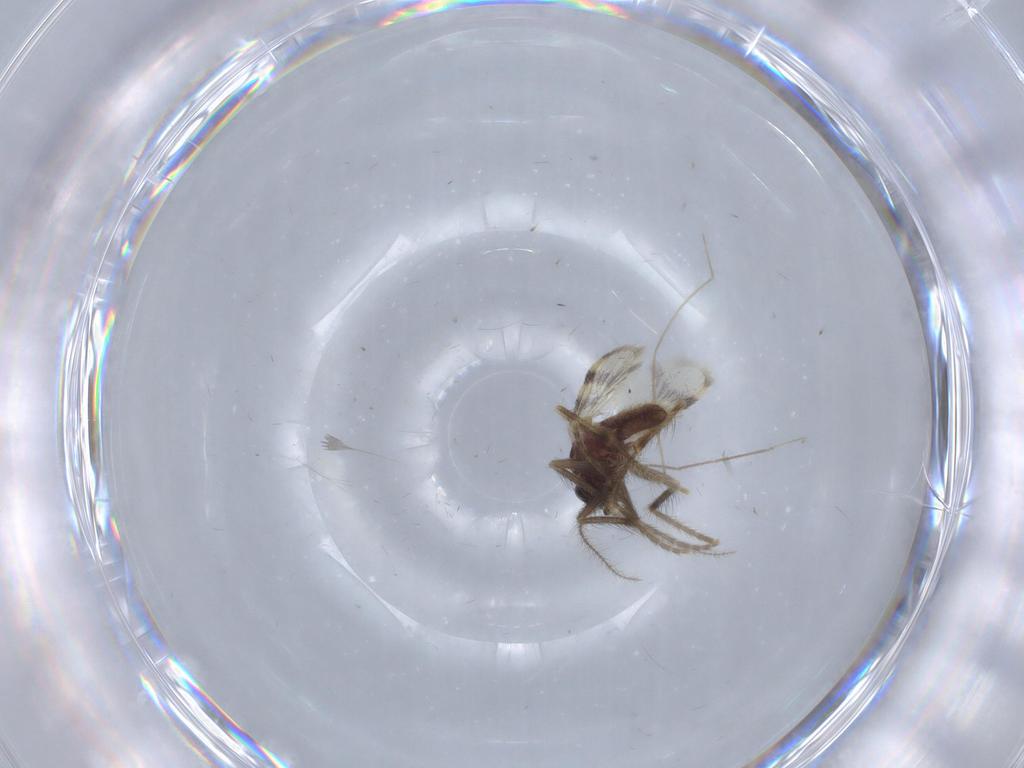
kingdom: Animalia
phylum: Arthropoda
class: Insecta
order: Diptera
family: Corethrellidae
